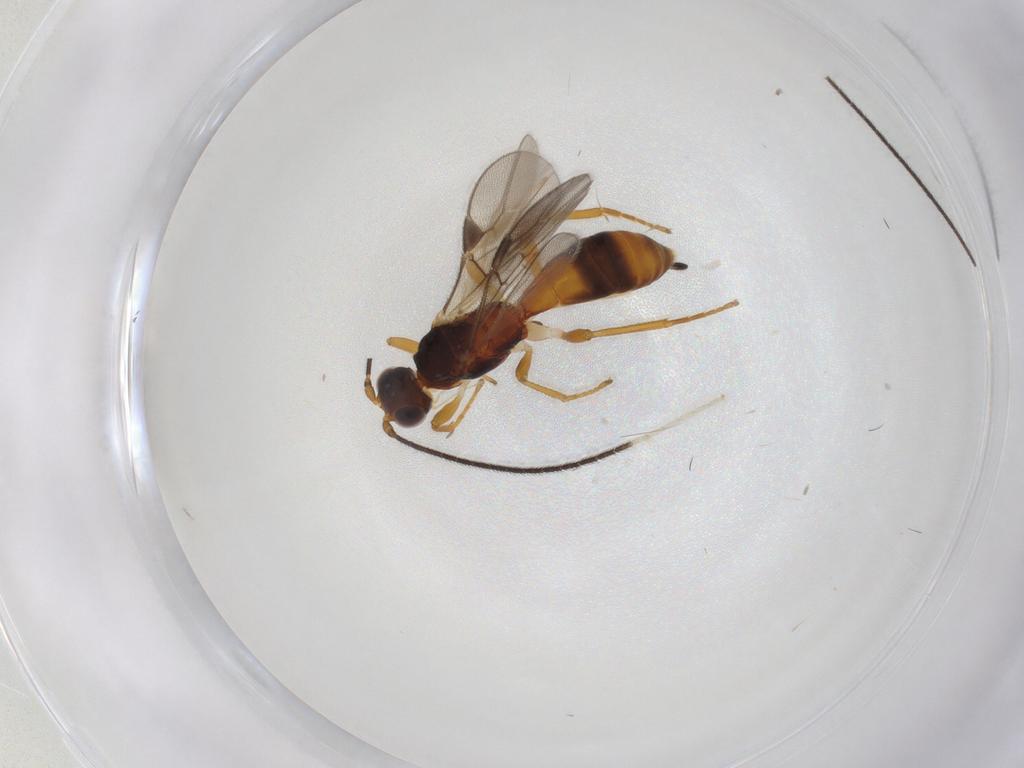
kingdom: Animalia
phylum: Arthropoda
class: Insecta
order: Hymenoptera
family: Braconidae
